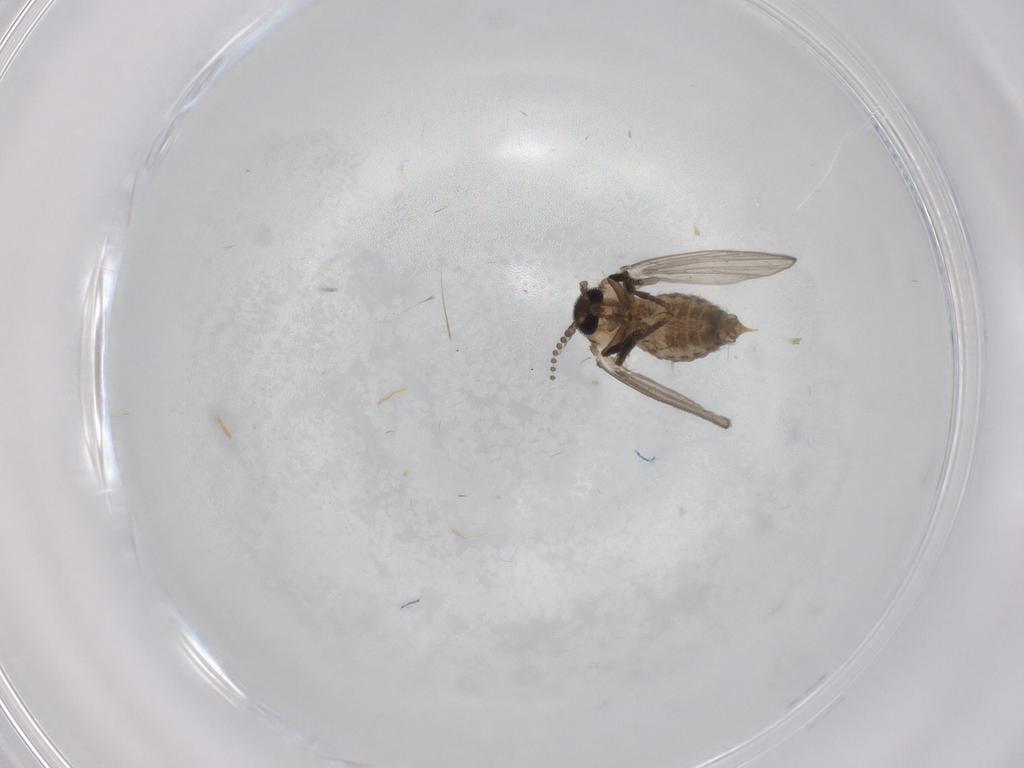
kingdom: Animalia
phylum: Arthropoda
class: Insecta
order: Diptera
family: Psychodidae
